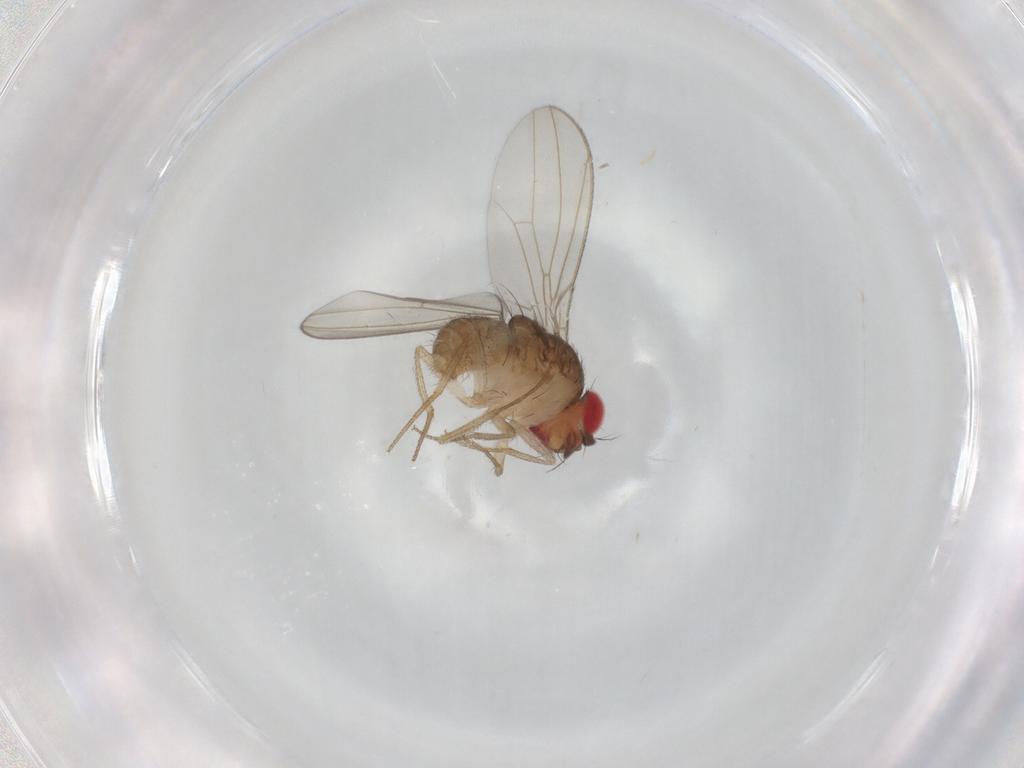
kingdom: Animalia
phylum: Arthropoda
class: Insecta
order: Diptera
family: Drosophilidae
